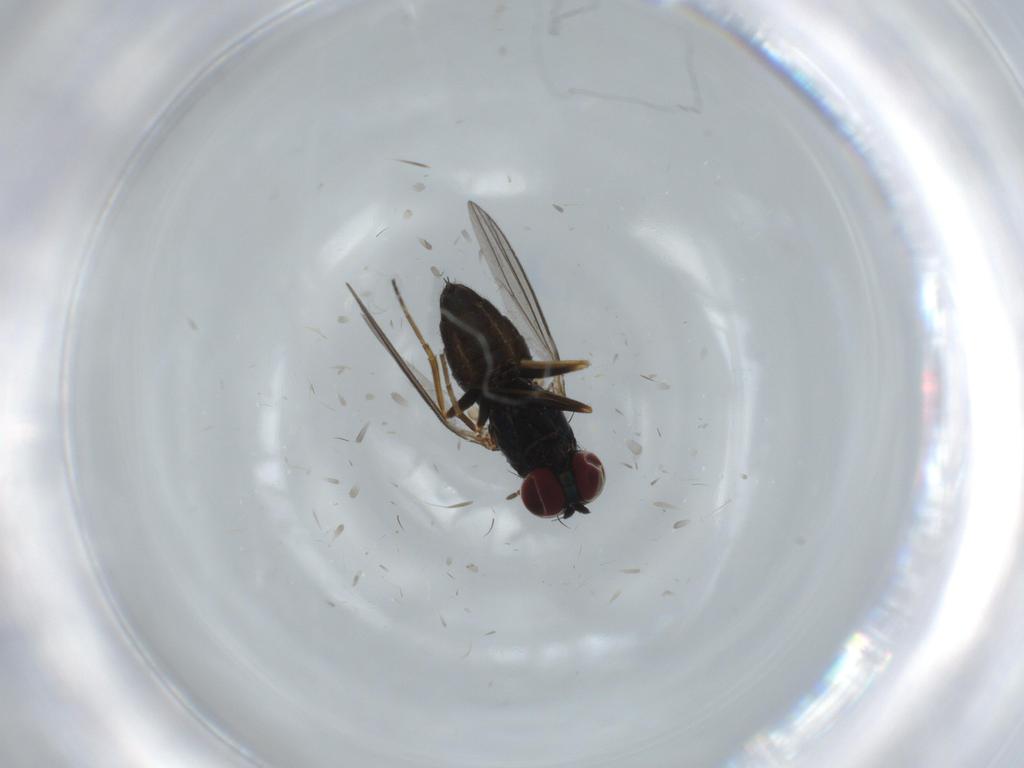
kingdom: Animalia
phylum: Arthropoda
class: Insecta
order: Diptera
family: Dolichopodidae
